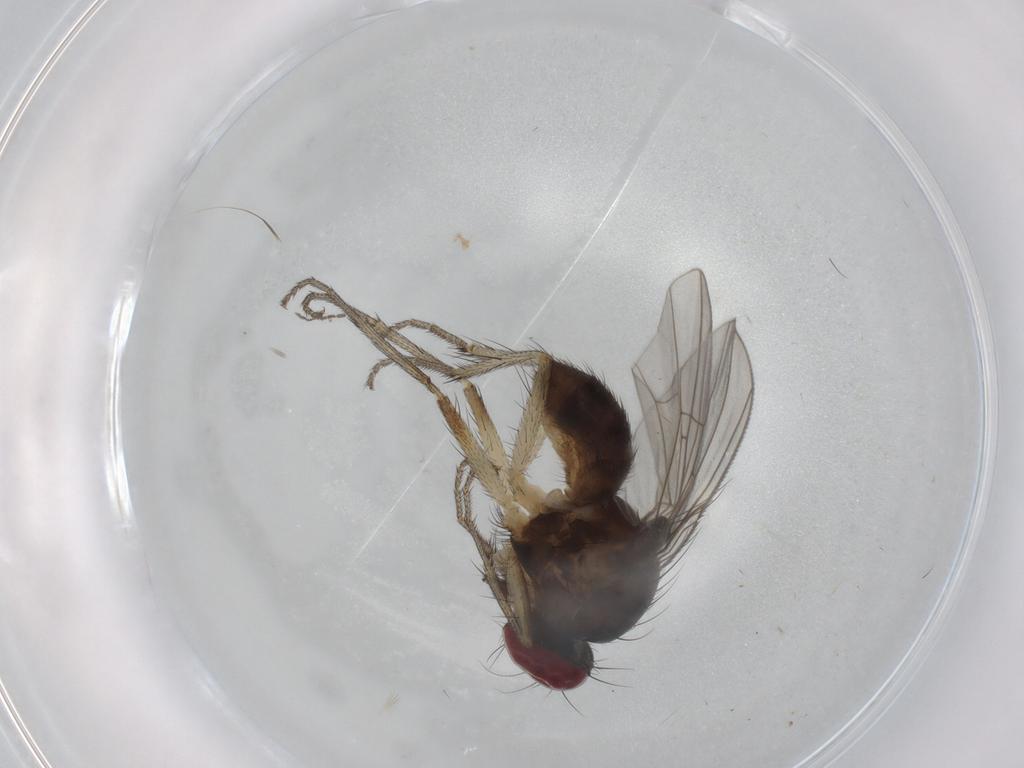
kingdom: Animalia
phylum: Arthropoda
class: Insecta
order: Diptera
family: Muscidae
